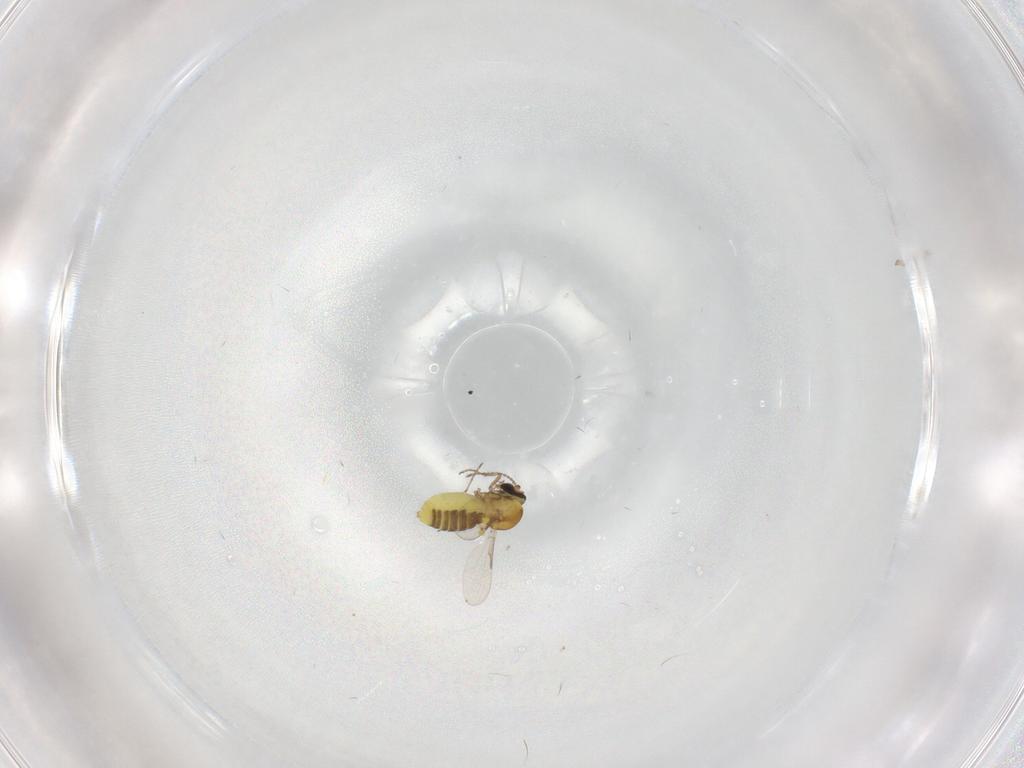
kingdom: Animalia
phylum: Arthropoda
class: Insecta
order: Diptera
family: Ceratopogonidae
